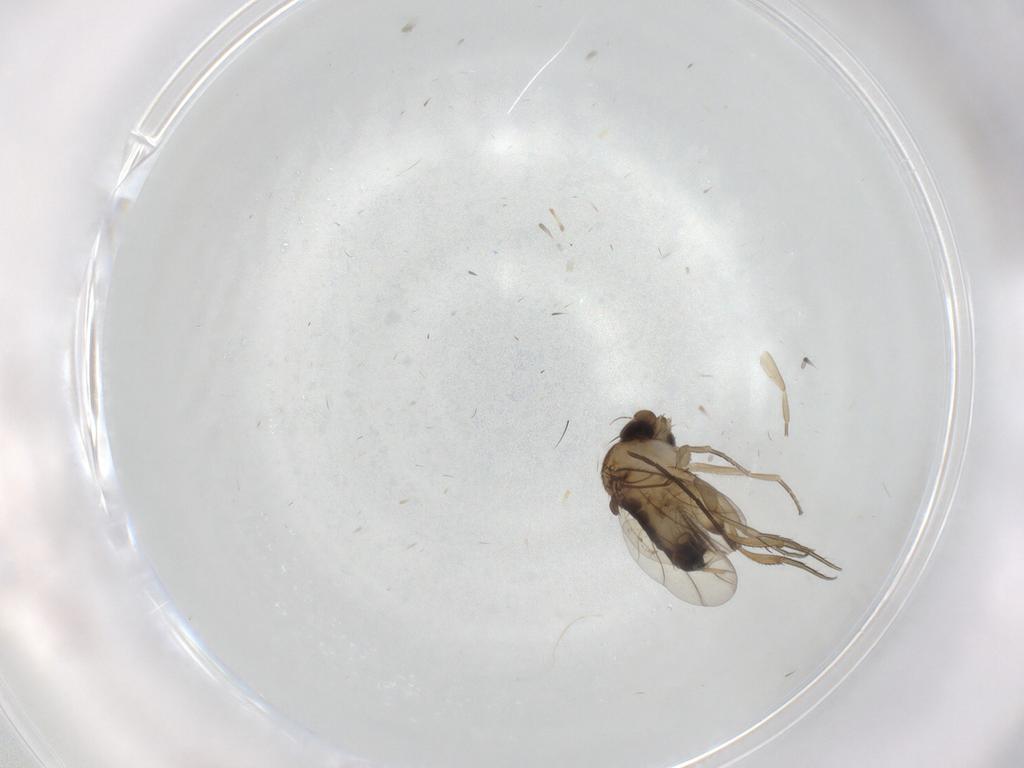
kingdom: Animalia
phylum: Arthropoda
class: Insecta
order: Diptera
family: Phoridae
